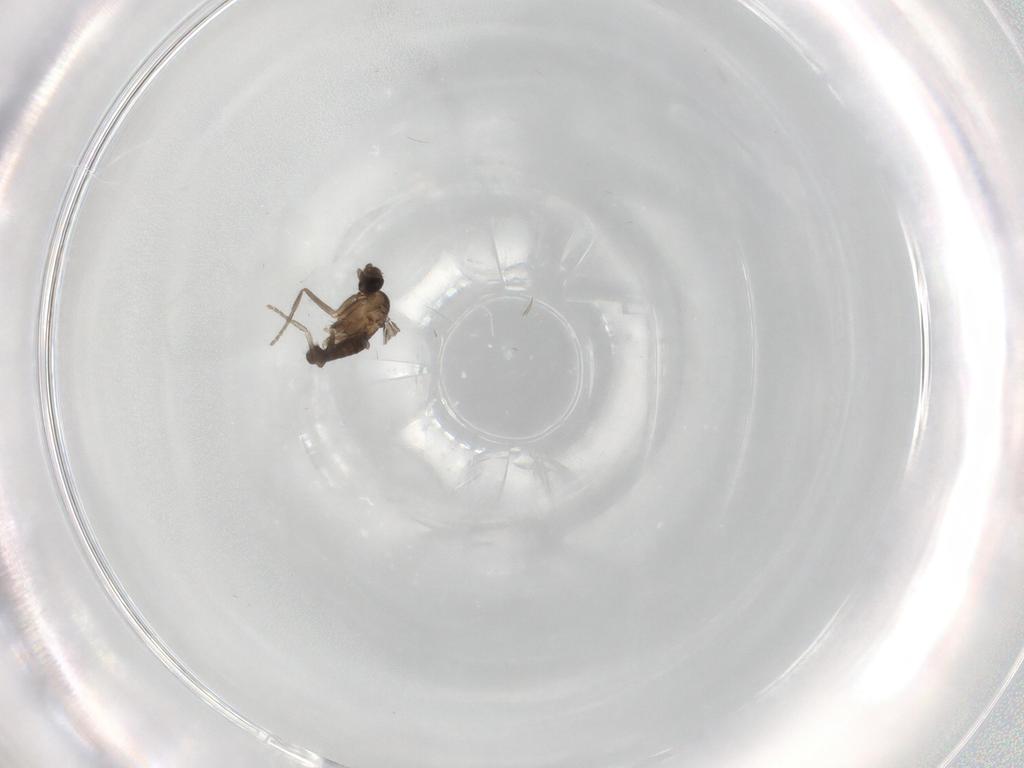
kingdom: Animalia
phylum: Arthropoda
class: Insecta
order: Diptera
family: Phoridae
